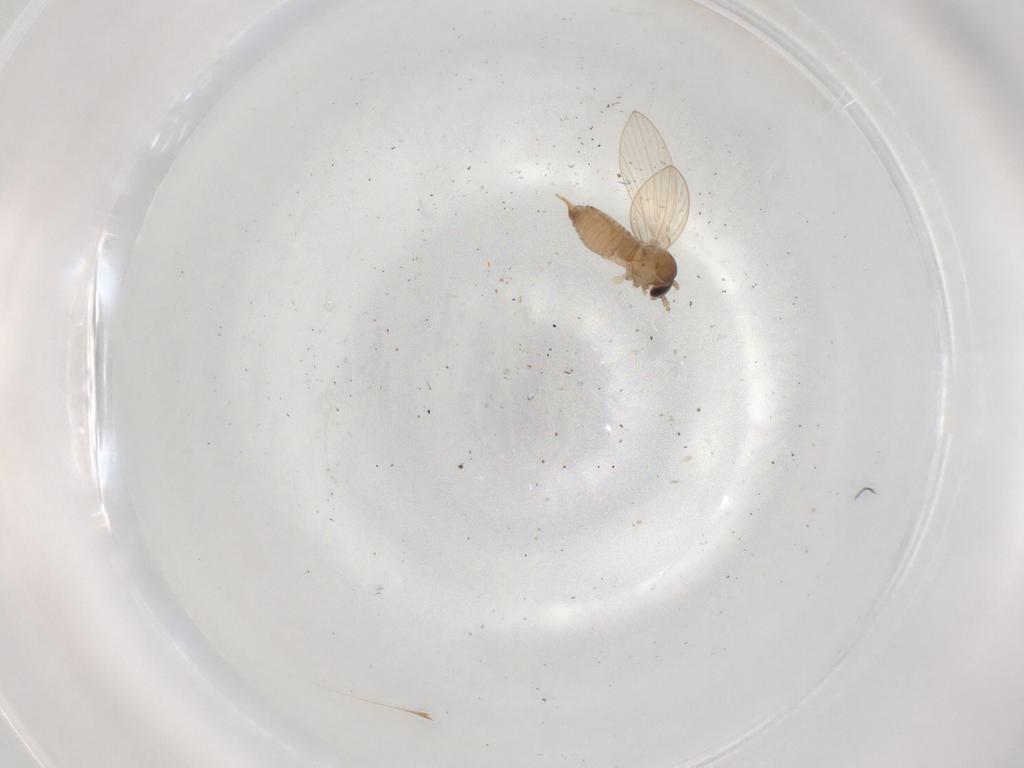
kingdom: Animalia
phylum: Arthropoda
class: Insecta
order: Diptera
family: Psychodidae
